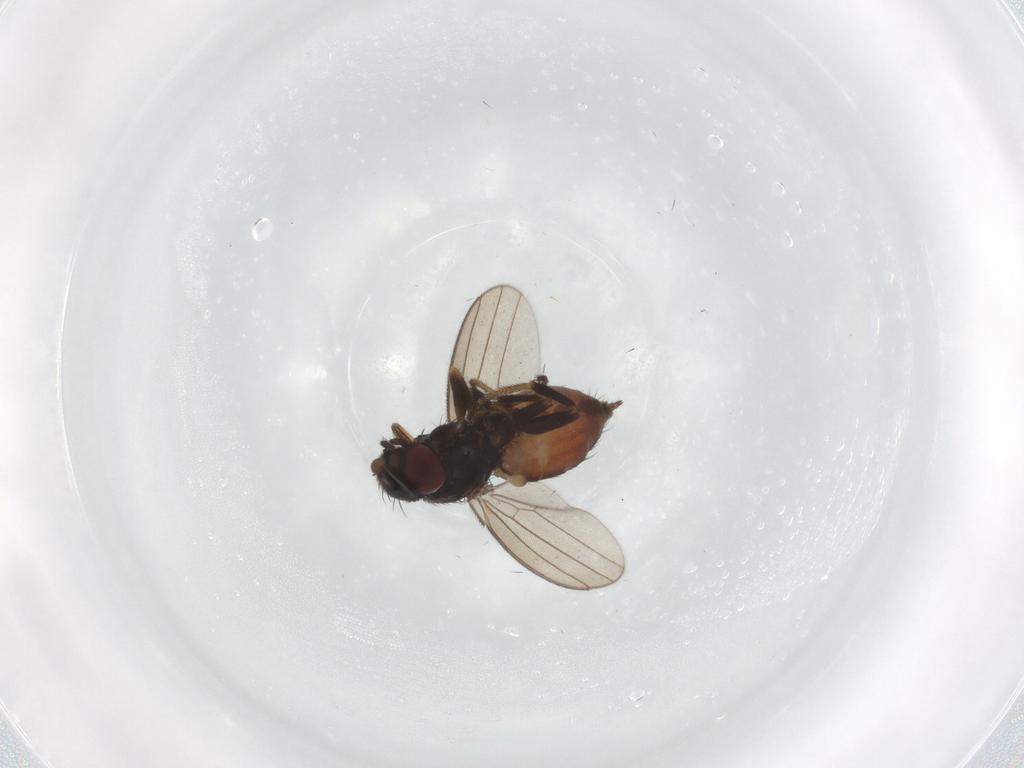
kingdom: Animalia
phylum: Arthropoda
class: Insecta
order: Diptera
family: Milichiidae
